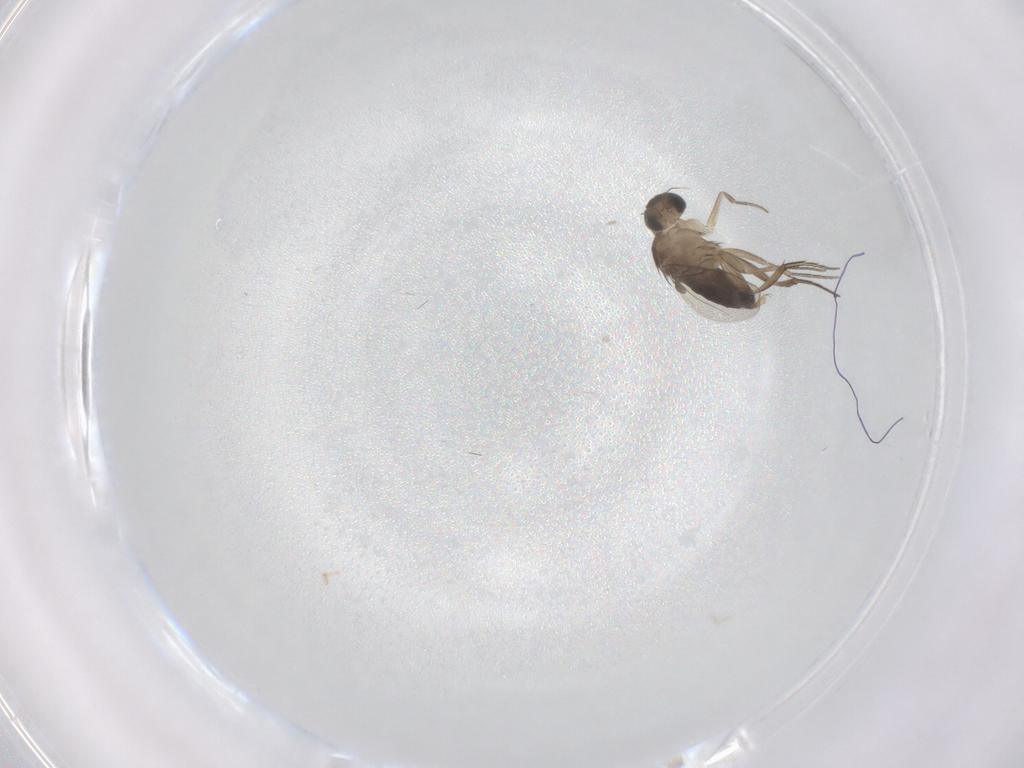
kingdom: Animalia
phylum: Arthropoda
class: Insecta
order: Diptera
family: Phoridae
